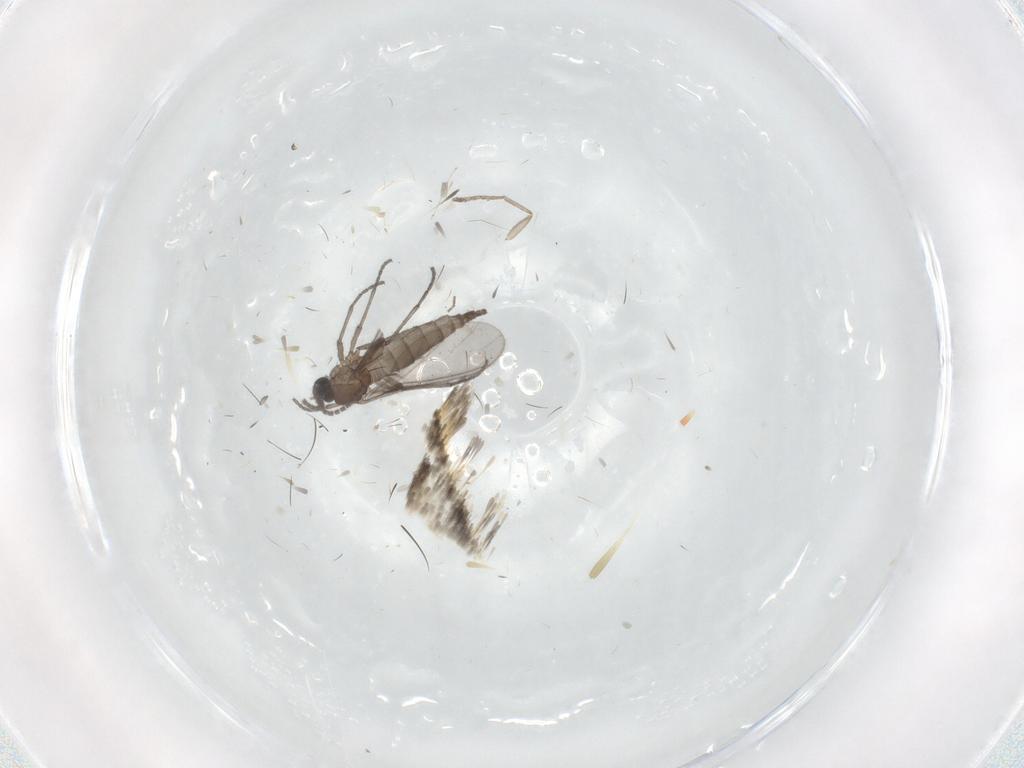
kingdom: Animalia
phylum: Arthropoda
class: Insecta
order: Diptera
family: Sciaridae
